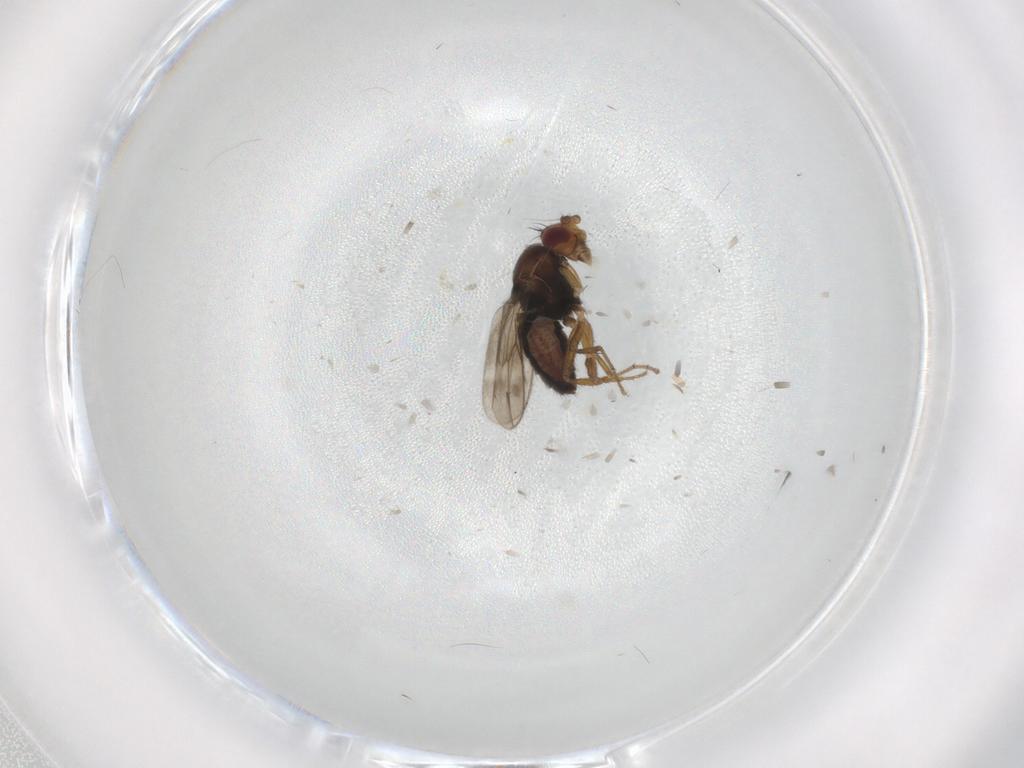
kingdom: Animalia
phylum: Arthropoda
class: Insecta
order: Diptera
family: Sphaeroceridae
